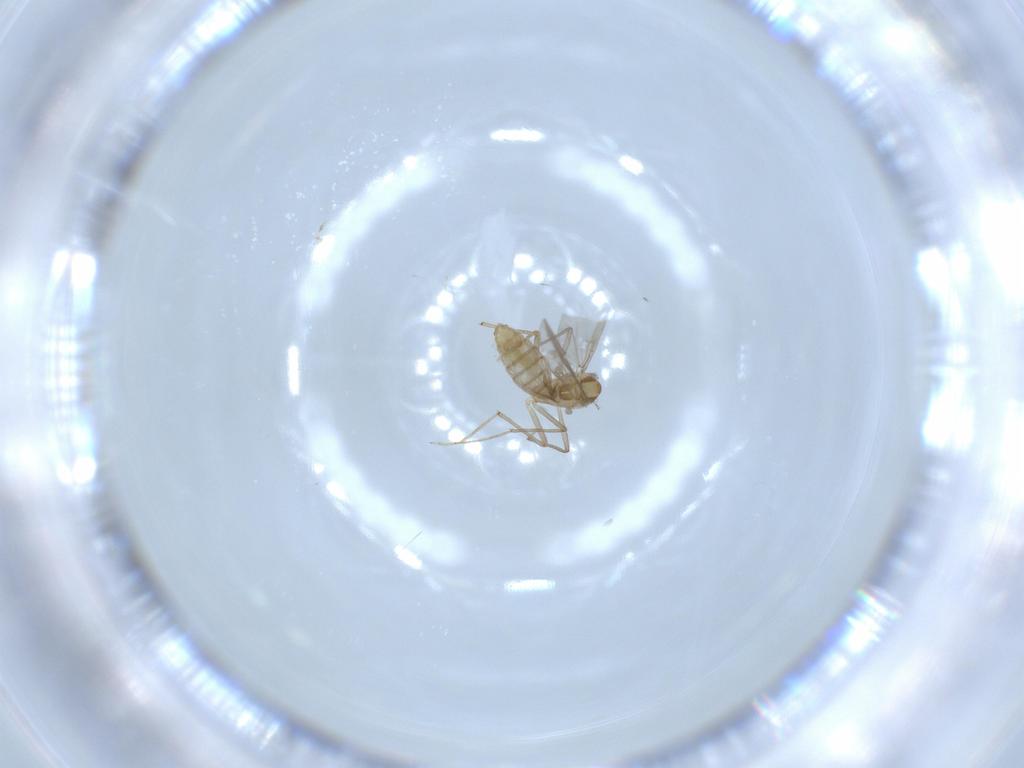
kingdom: Animalia
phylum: Arthropoda
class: Insecta
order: Diptera
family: Chironomidae
